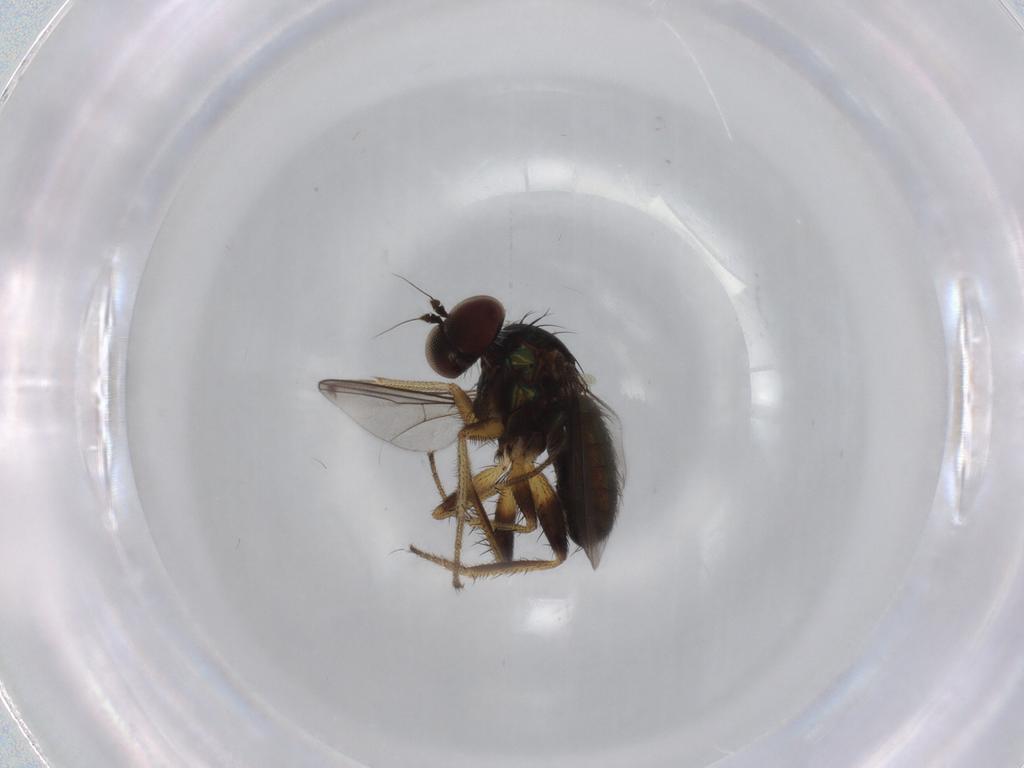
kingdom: Animalia
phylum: Arthropoda
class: Insecta
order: Diptera
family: Dolichopodidae
